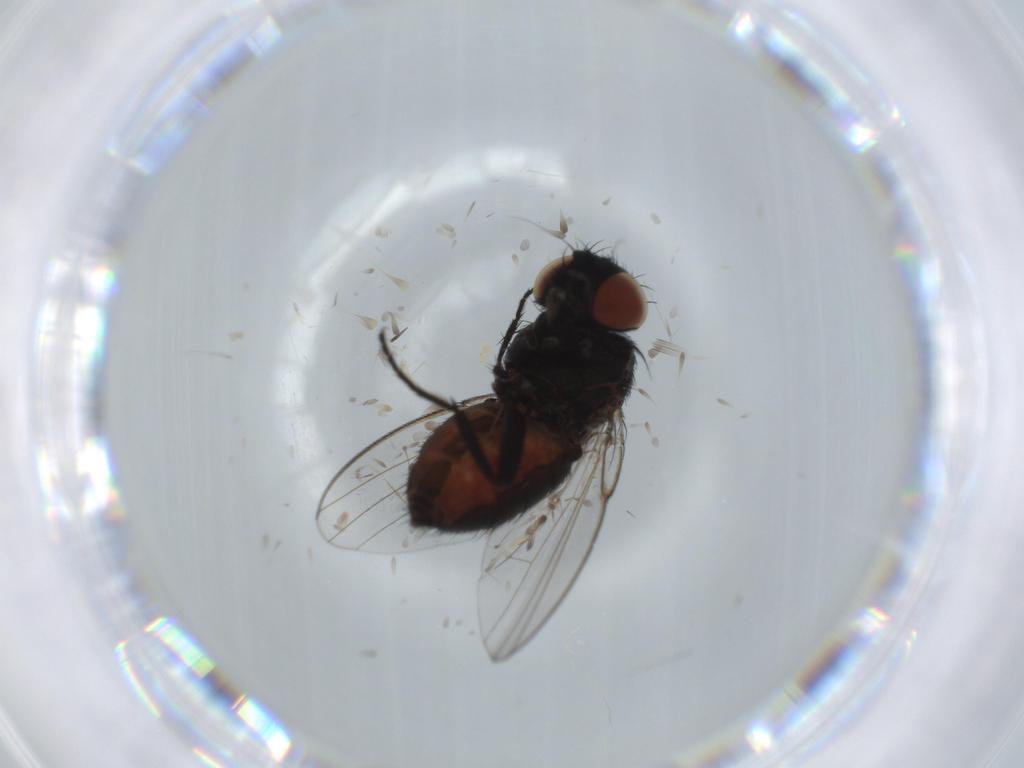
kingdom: Animalia
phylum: Arthropoda
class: Insecta
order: Diptera
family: Milichiidae
